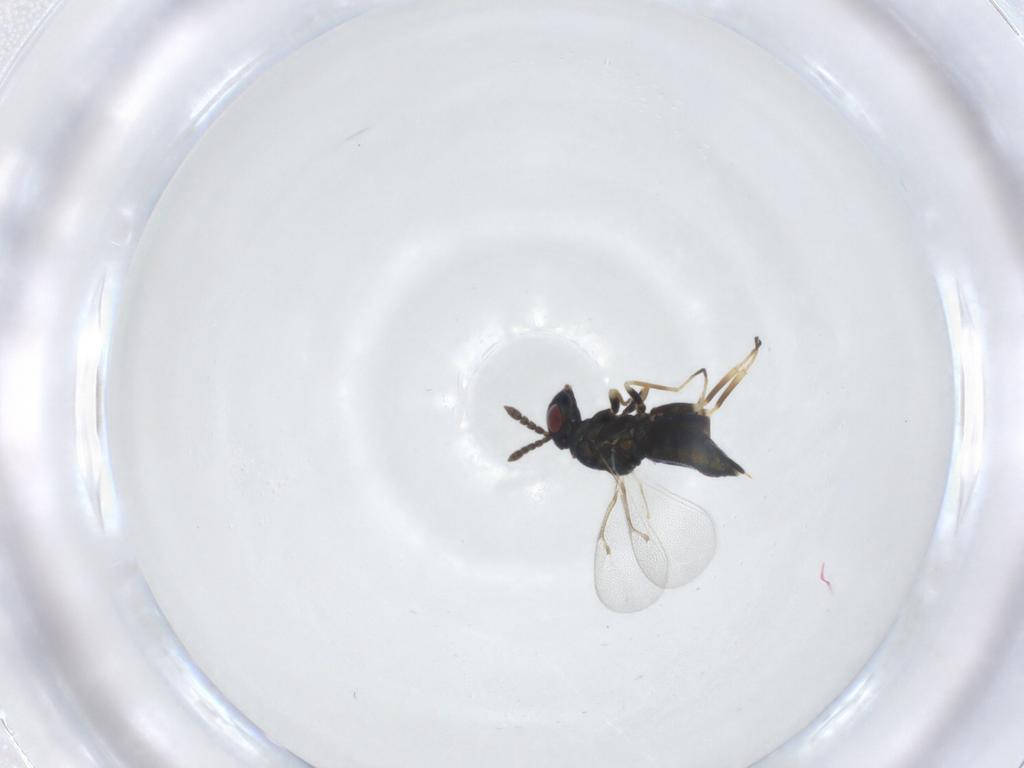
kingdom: Animalia
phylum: Arthropoda
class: Insecta
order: Hymenoptera
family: Eulophidae
